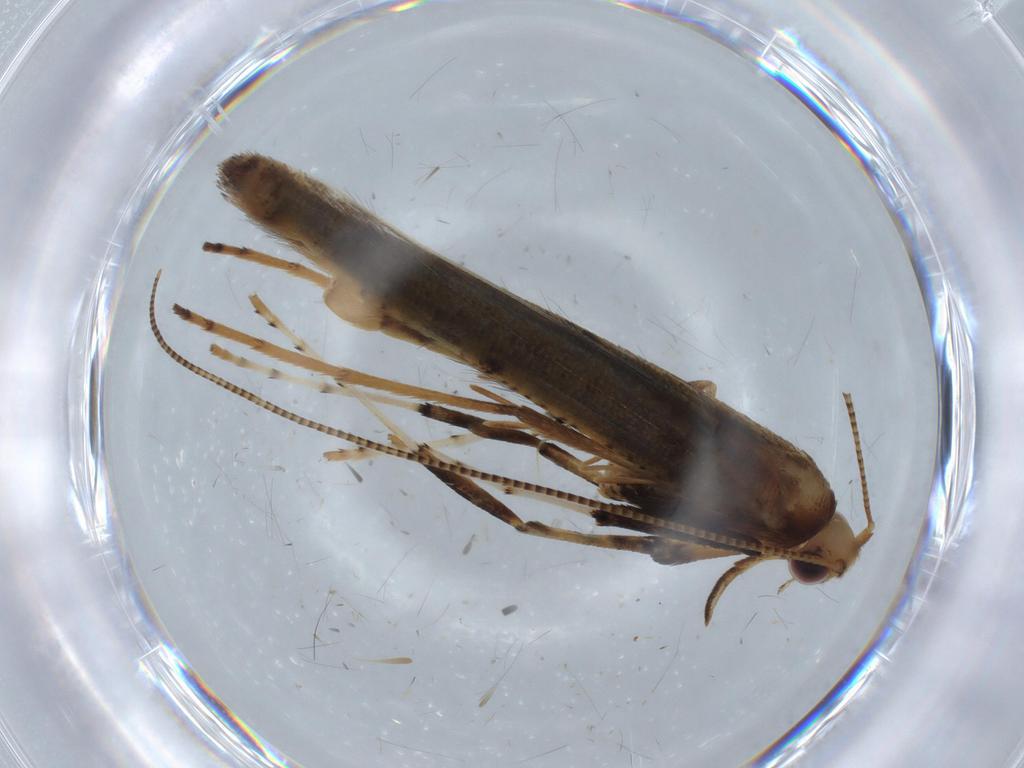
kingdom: Animalia
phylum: Arthropoda
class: Insecta
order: Lepidoptera
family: Gracillariidae
